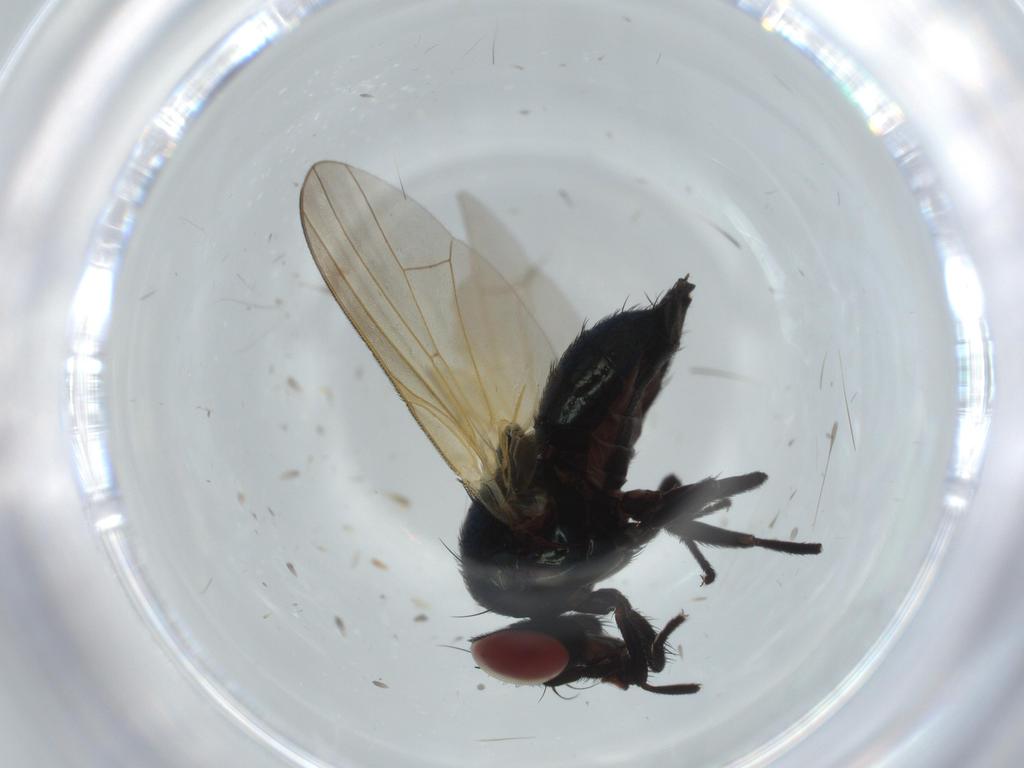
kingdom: Animalia
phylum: Arthropoda
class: Insecta
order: Diptera
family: Lonchaeidae
